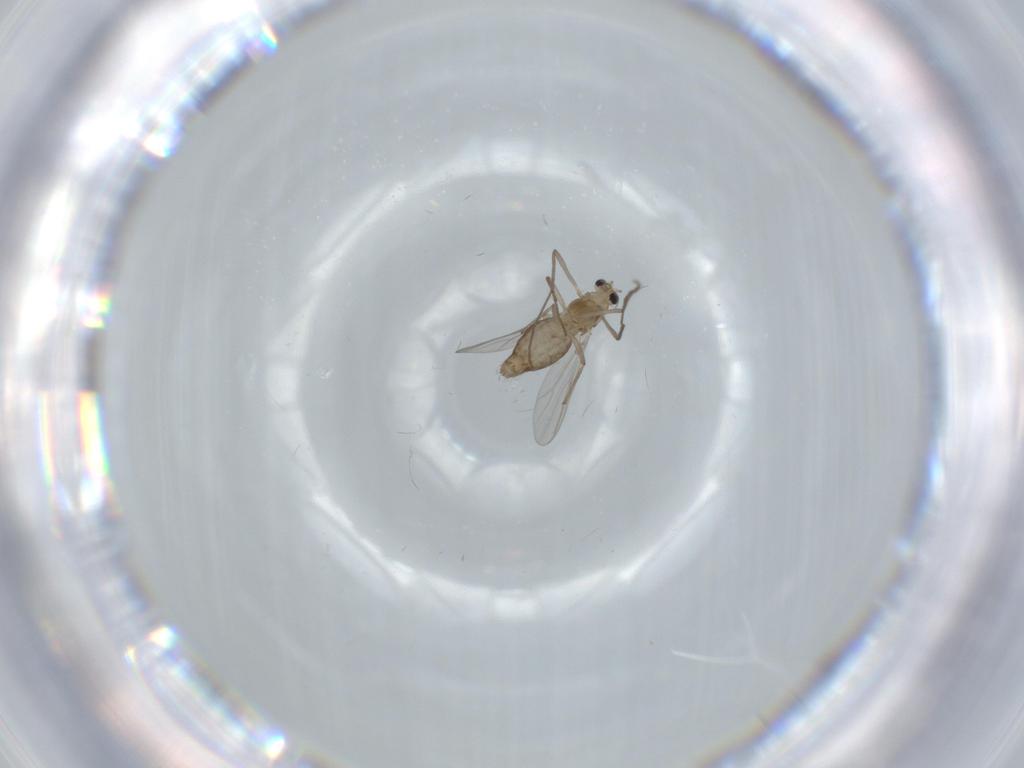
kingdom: Animalia
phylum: Arthropoda
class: Insecta
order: Diptera
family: Chironomidae
